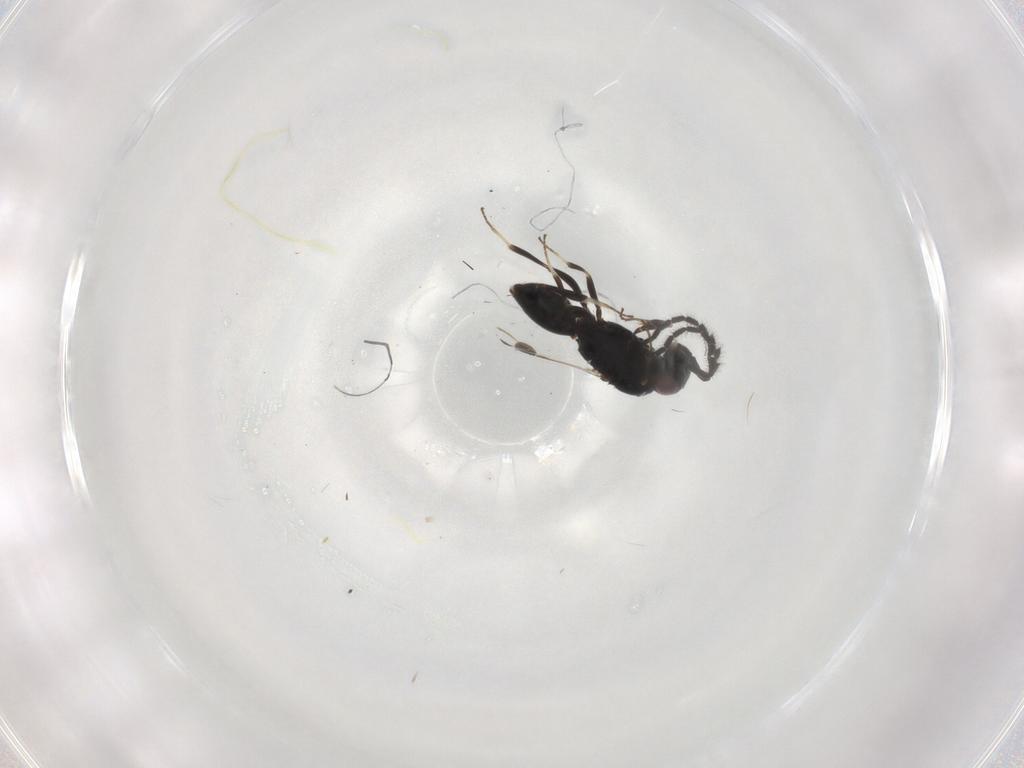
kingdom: Animalia
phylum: Arthropoda
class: Insecta
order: Hymenoptera
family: Megaspilidae
